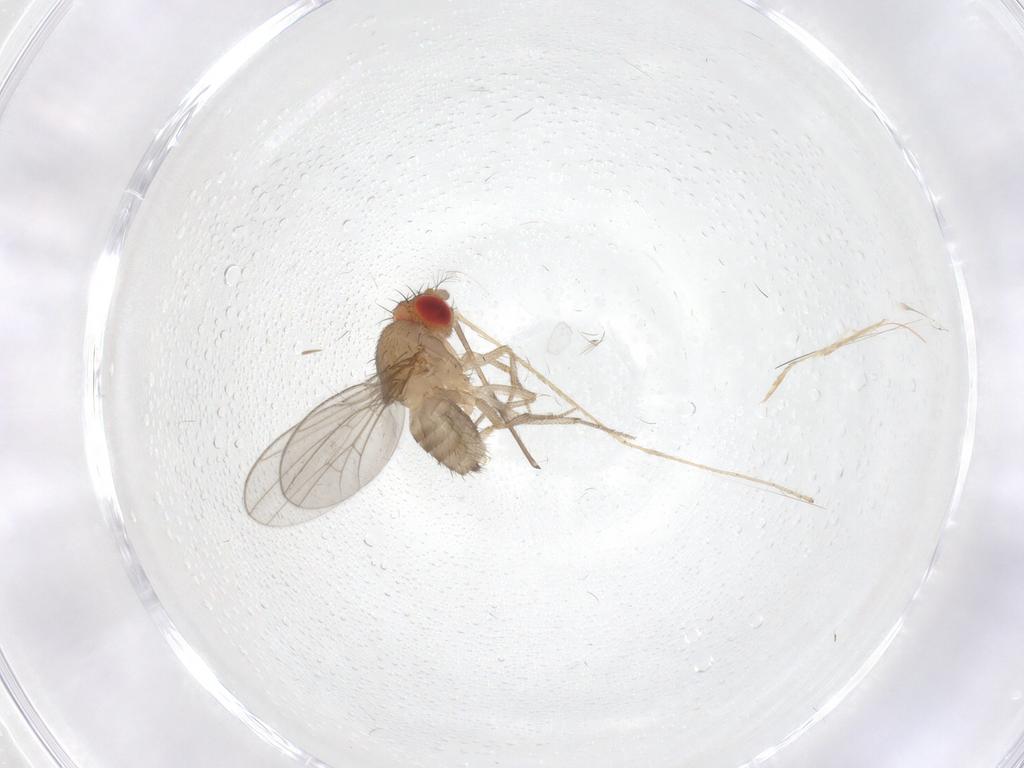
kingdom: Animalia
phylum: Arthropoda
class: Insecta
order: Diptera
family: Limoniidae
